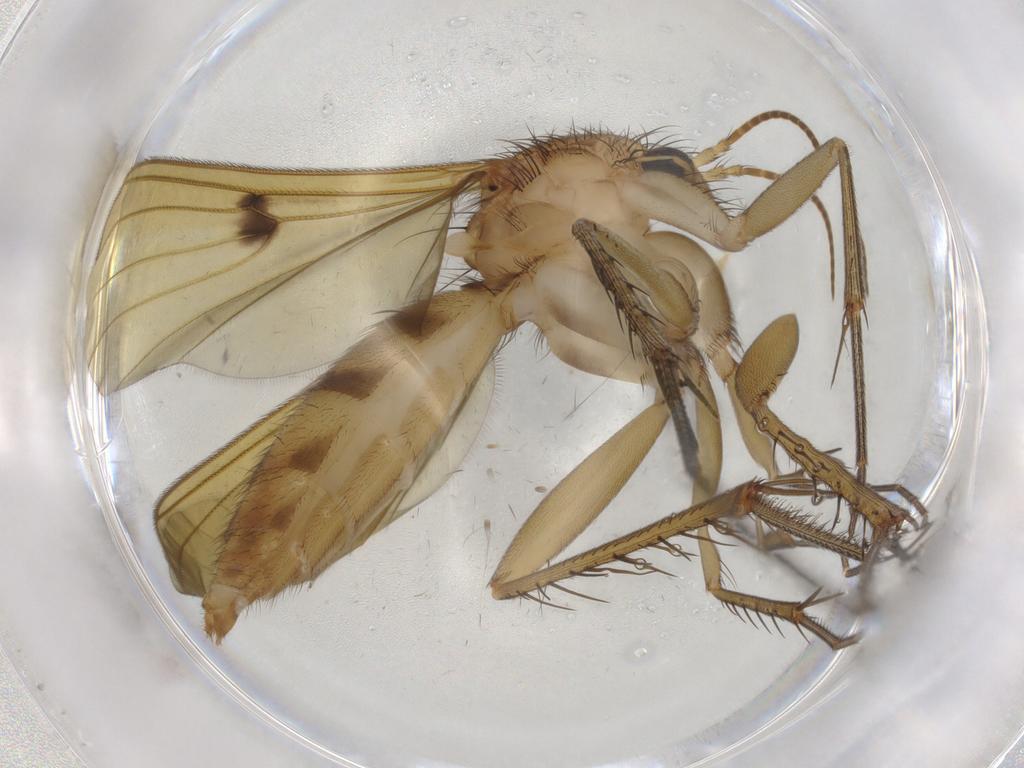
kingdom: Animalia
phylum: Arthropoda
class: Insecta
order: Diptera
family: Mycetophilidae
